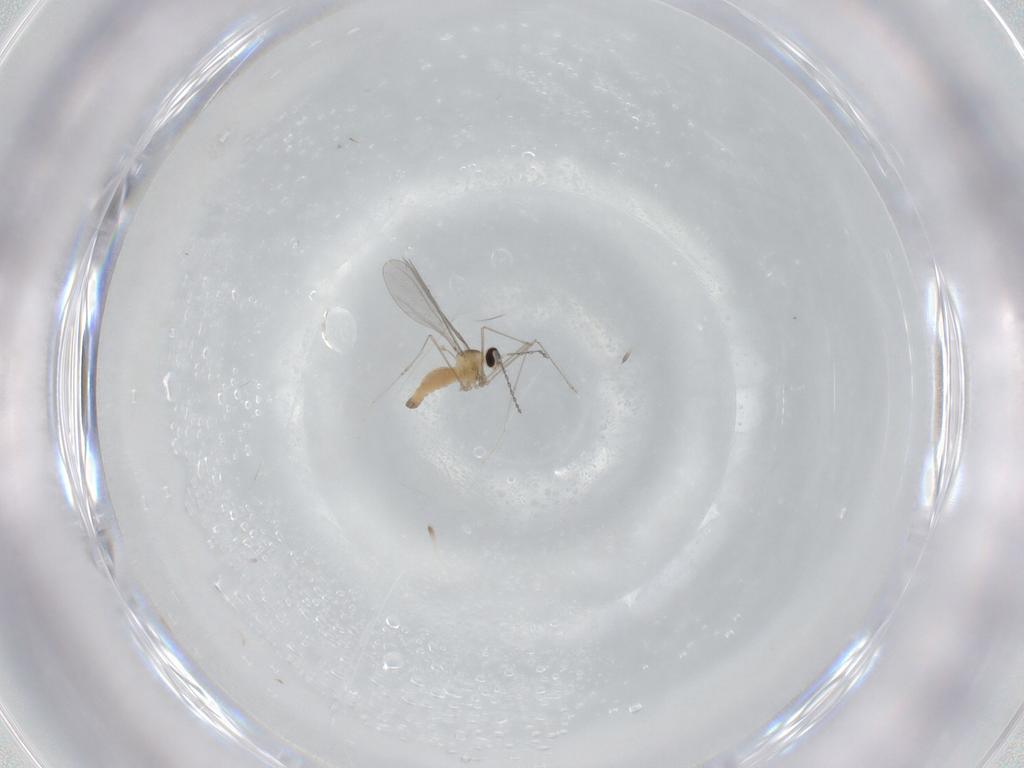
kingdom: Animalia
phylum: Arthropoda
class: Insecta
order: Diptera
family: Cecidomyiidae
